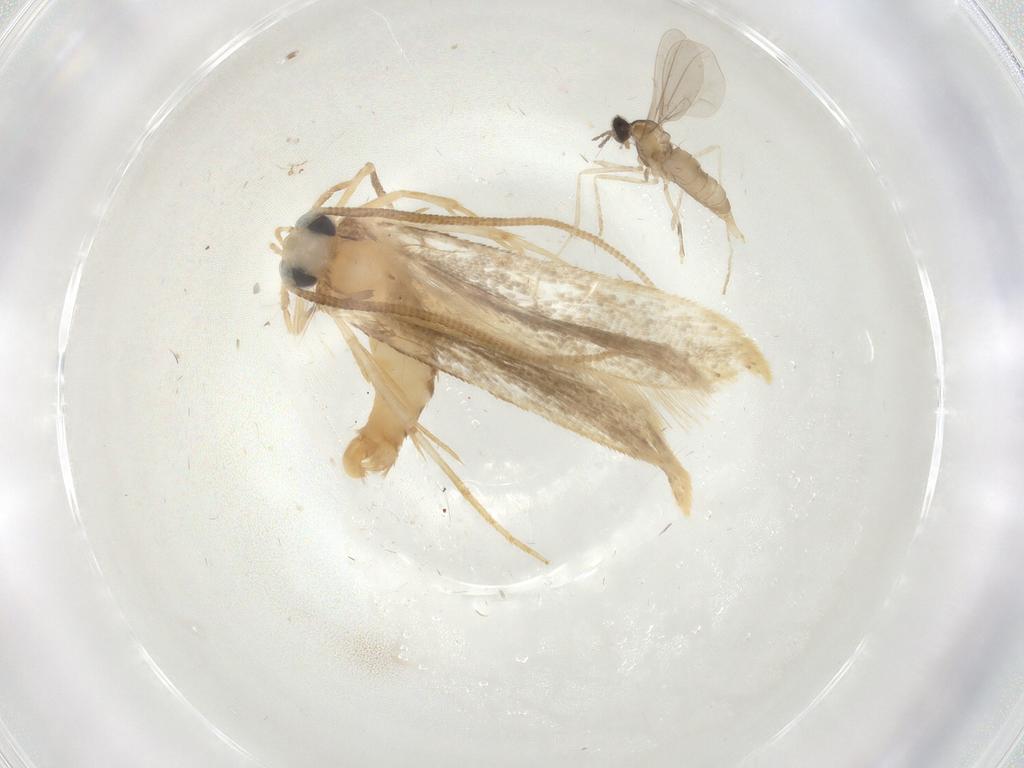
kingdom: Animalia
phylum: Arthropoda
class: Insecta
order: Lepidoptera
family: Tineidae
